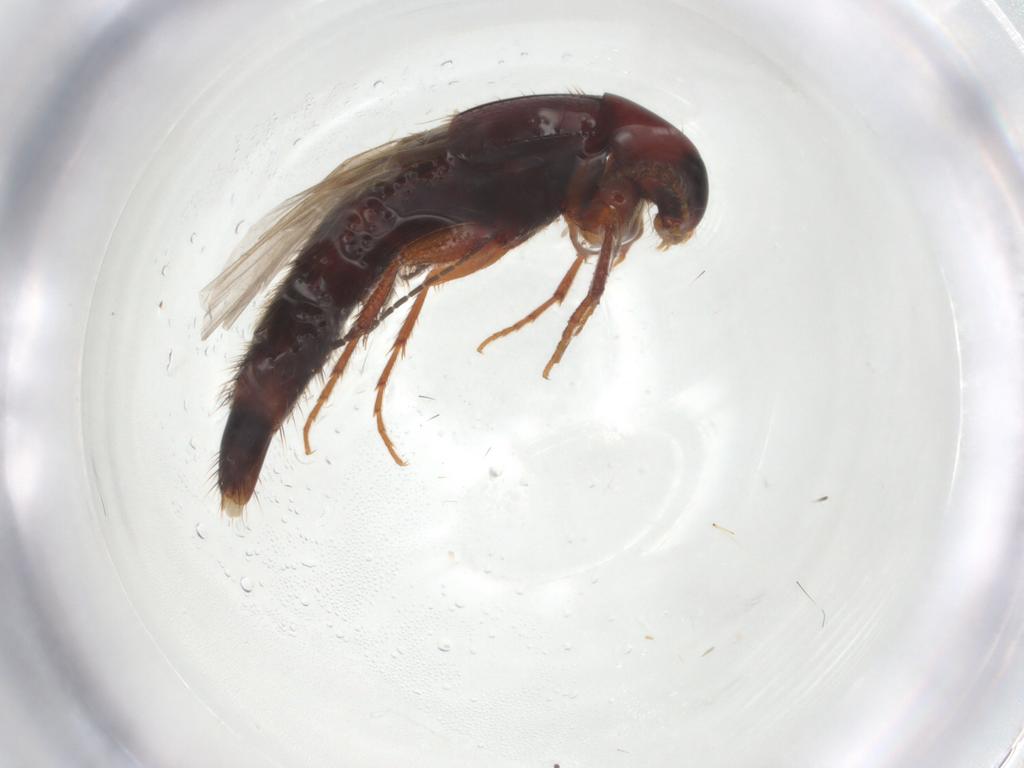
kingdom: Animalia
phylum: Arthropoda
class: Insecta
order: Coleoptera
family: Staphylinidae
